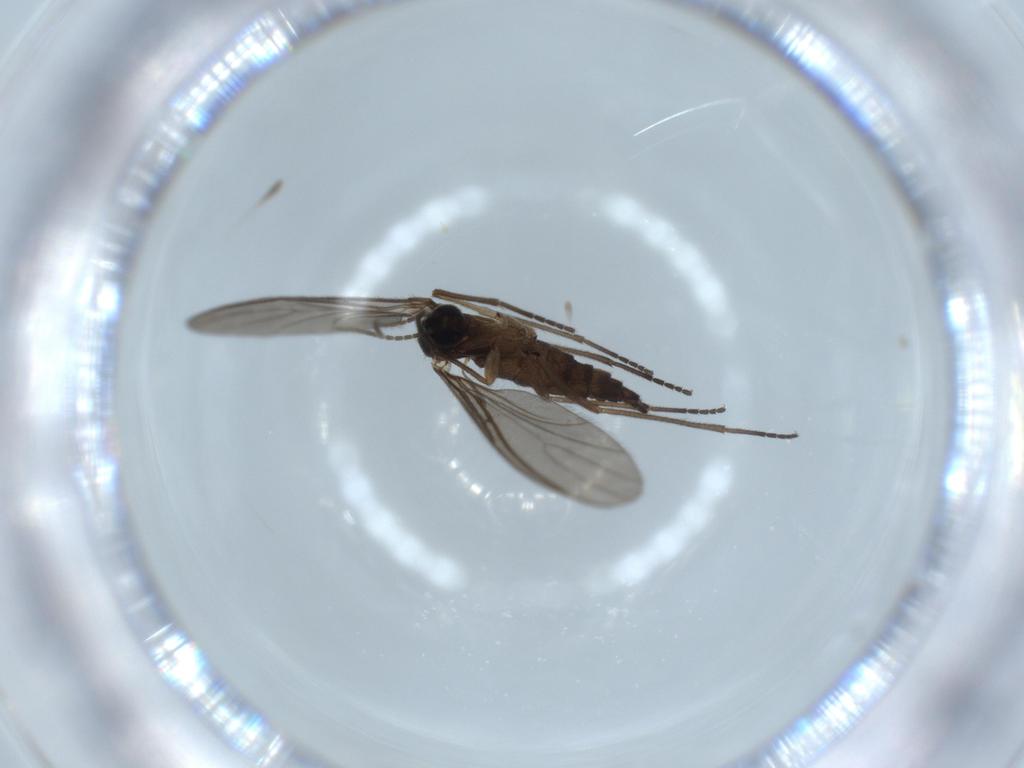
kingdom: Animalia
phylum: Arthropoda
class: Insecta
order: Diptera
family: Sciaridae
